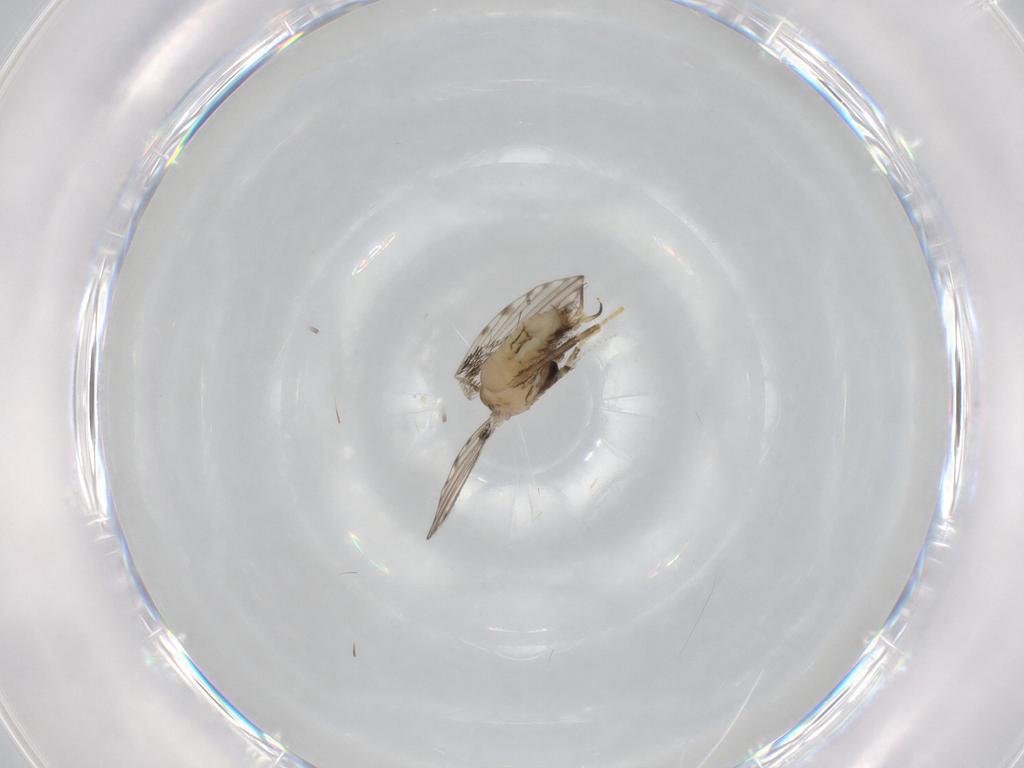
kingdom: Animalia
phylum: Arthropoda
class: Insecta
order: Diptera
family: Psychodidae
